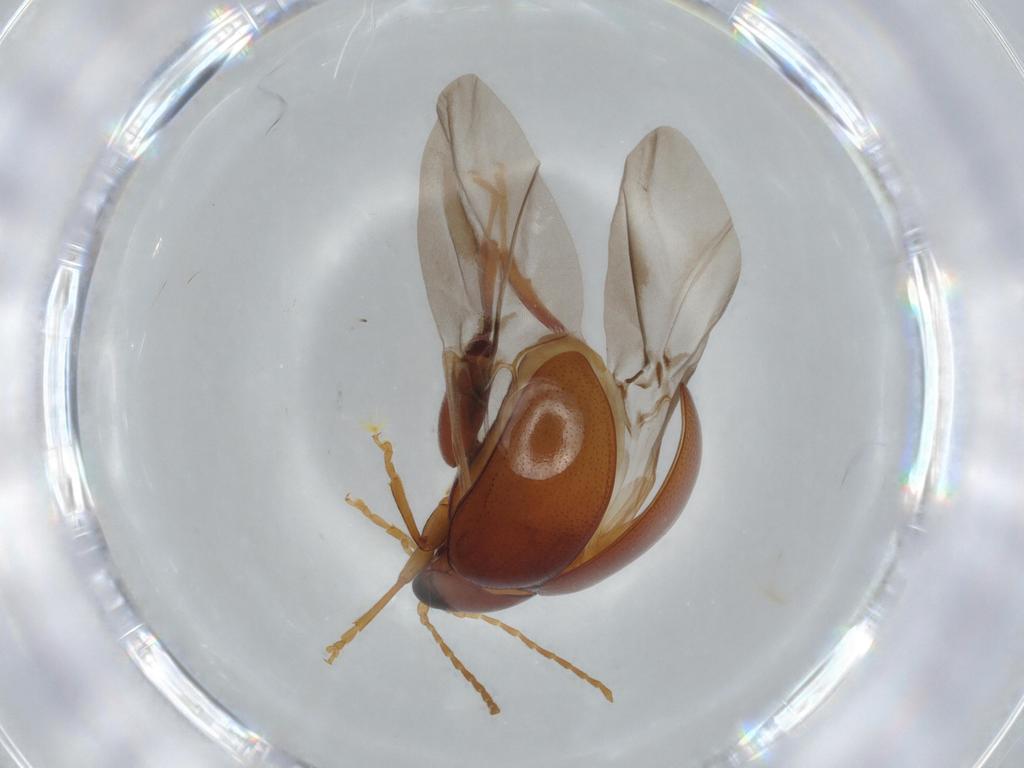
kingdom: Animalia
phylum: Arthropoda
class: Insecta
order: Coleoptera
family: Chrysomelidae
